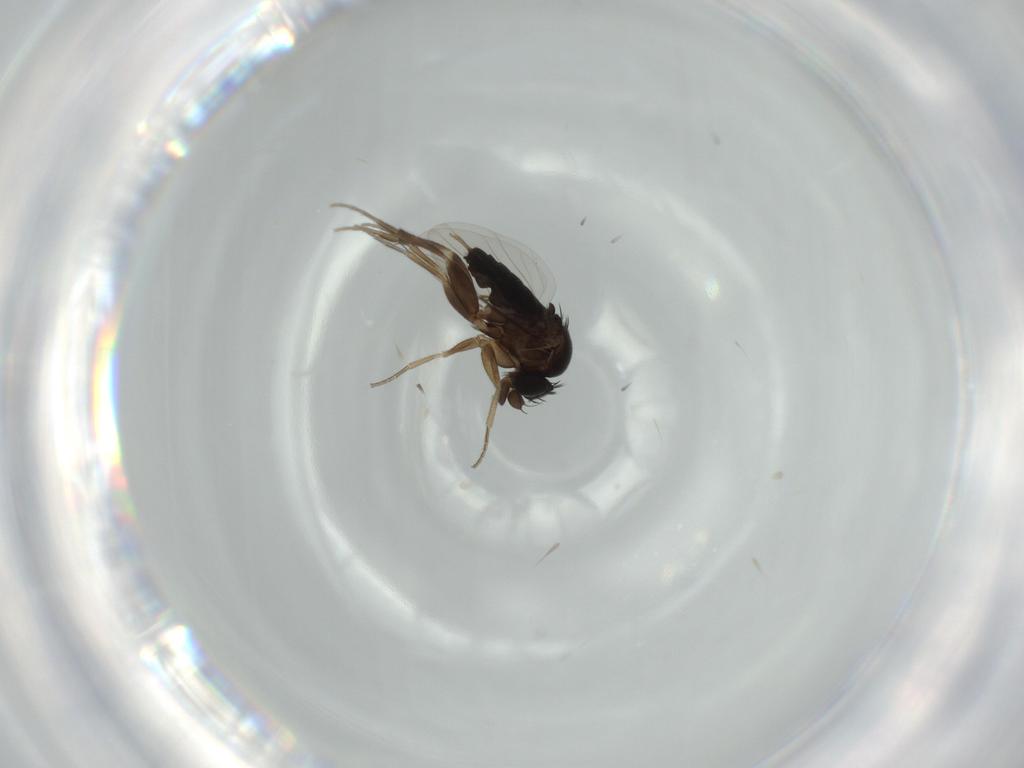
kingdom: Animalia
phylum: Arthropoda
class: Insecta
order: Diptera
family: Phoridae
